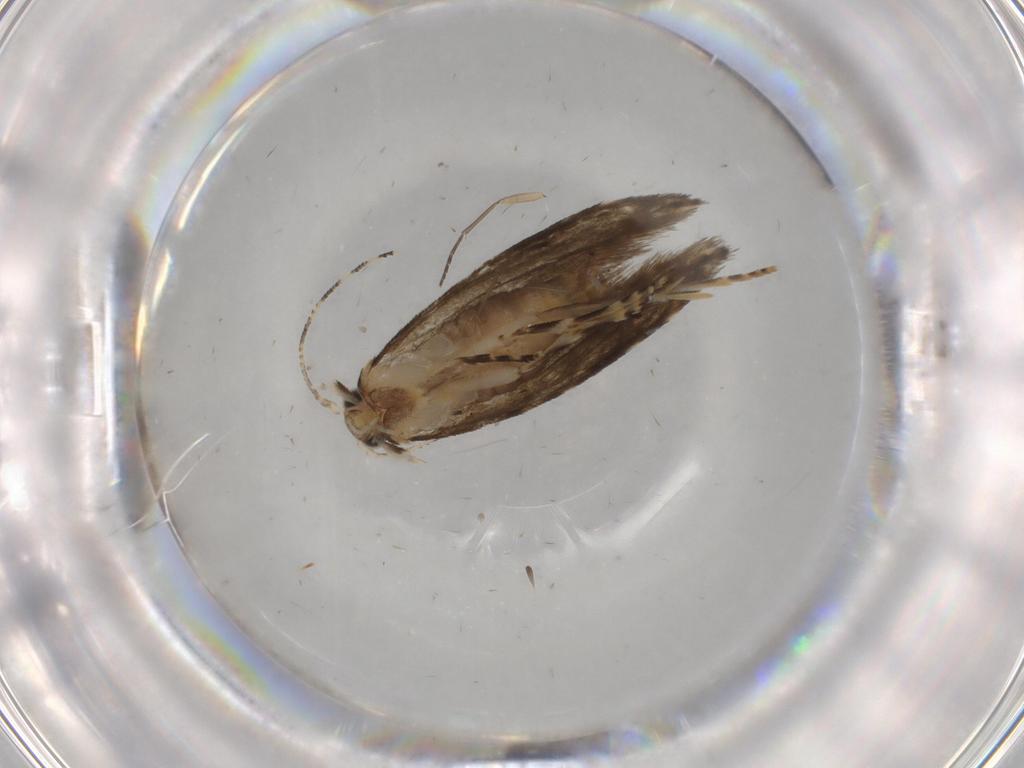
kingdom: Animalia
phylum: Arthropoda
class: Insecta
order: Lepidoptera
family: Tineidae
